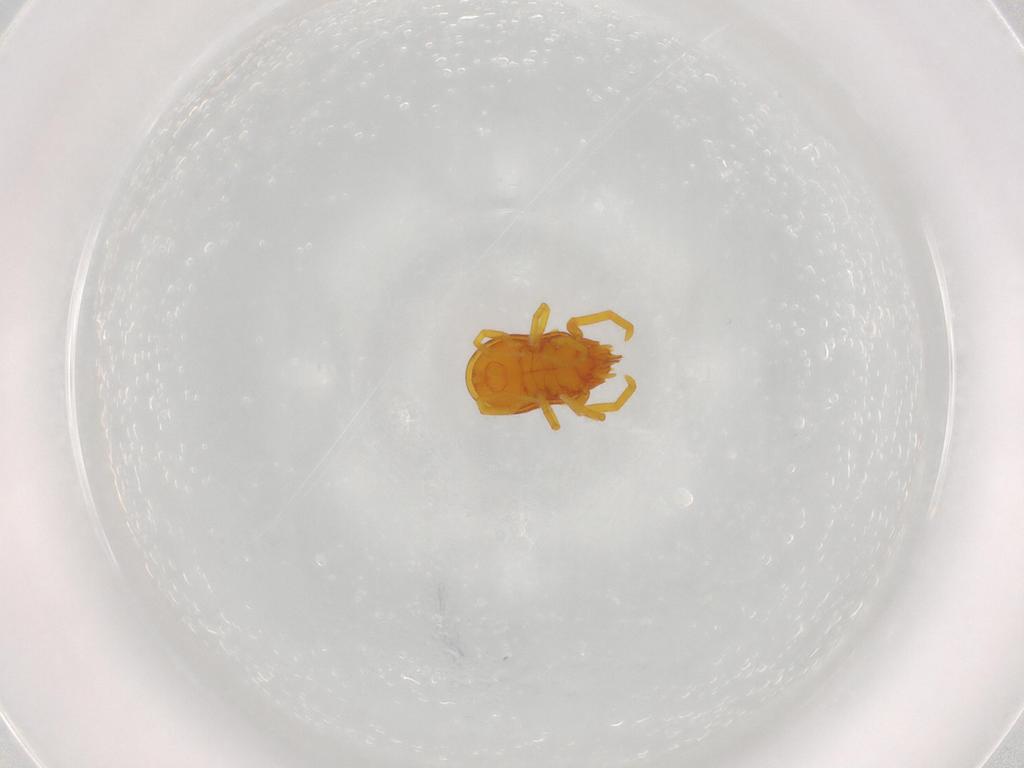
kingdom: Animalia
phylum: Arthropoda
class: Arachnida
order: Trombidiformes
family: Labidostommidae
